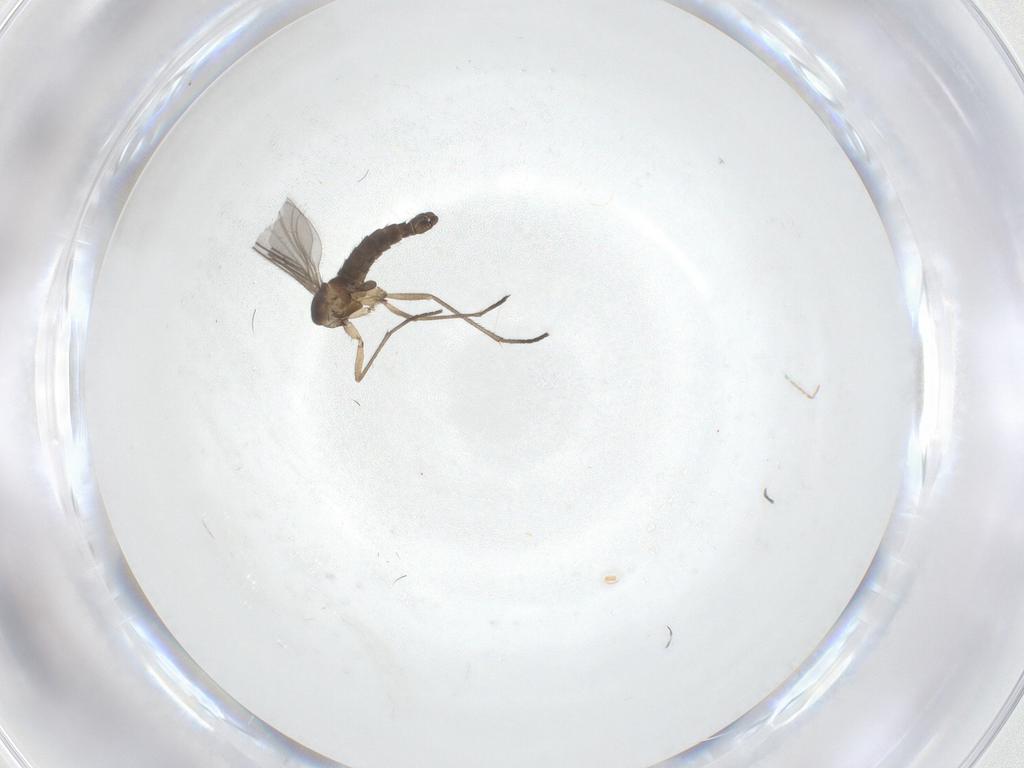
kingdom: Animalia
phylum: Arthropoda
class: Insecta
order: Diptera
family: Sciaridae
